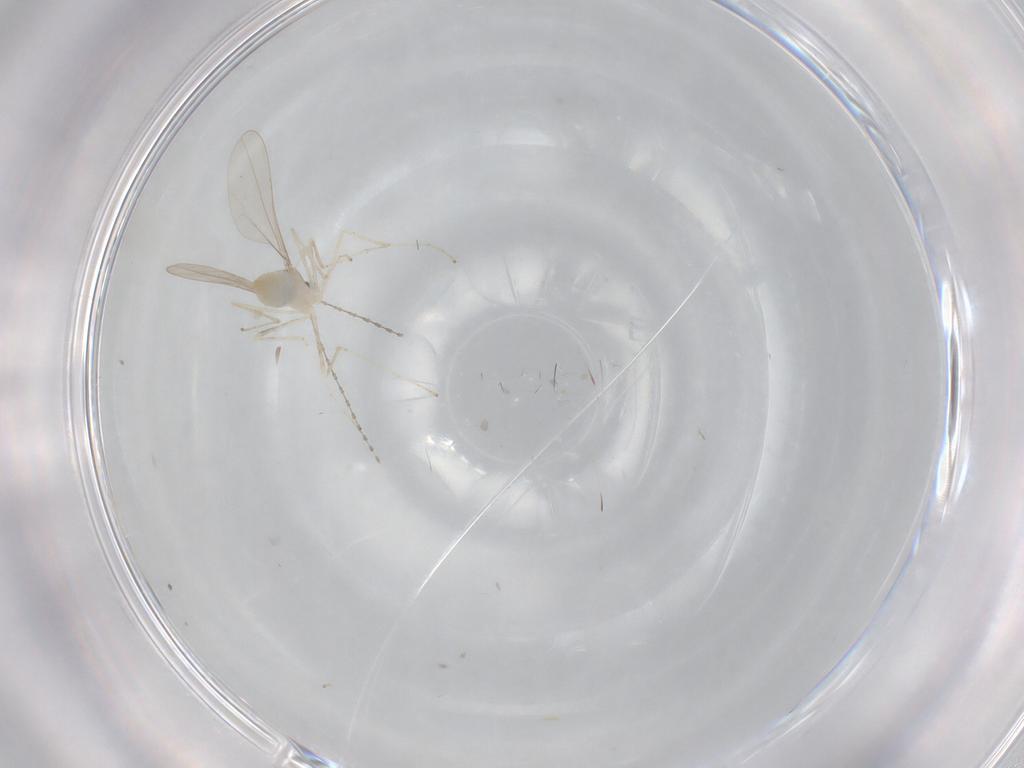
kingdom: Animalia
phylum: Arthropoda
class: Insecta
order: Diptera
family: Cecidomyiidae
